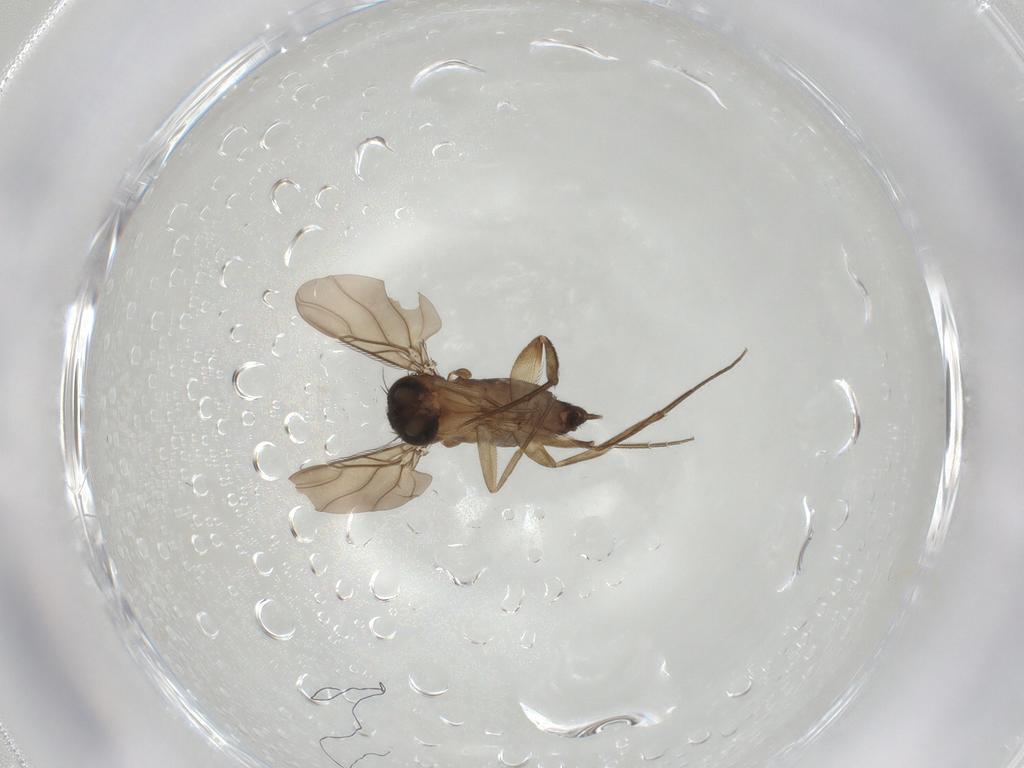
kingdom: Animalia
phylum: Arthropoda
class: Insecta
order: Diptera
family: Phoridae
